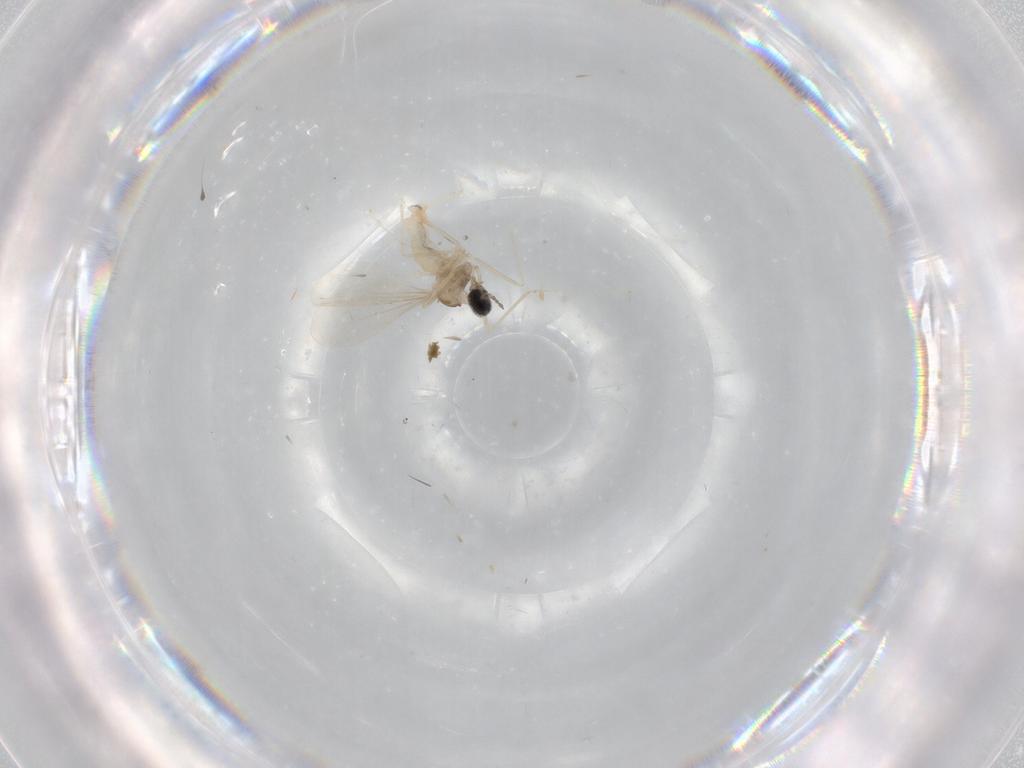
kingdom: Animalia
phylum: Arthropoda
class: Insecta
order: Diptera
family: Cecidomyiidae
